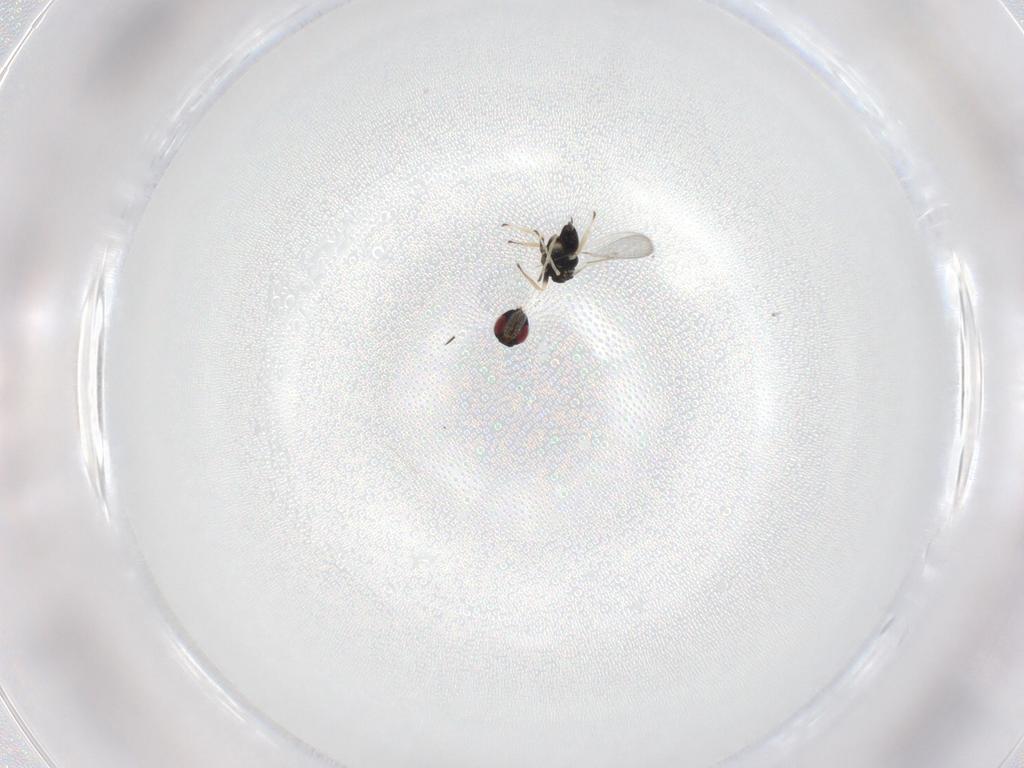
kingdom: Animalia
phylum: Arthropoda
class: Insecta
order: Hymenoptera
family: Eulophidae
